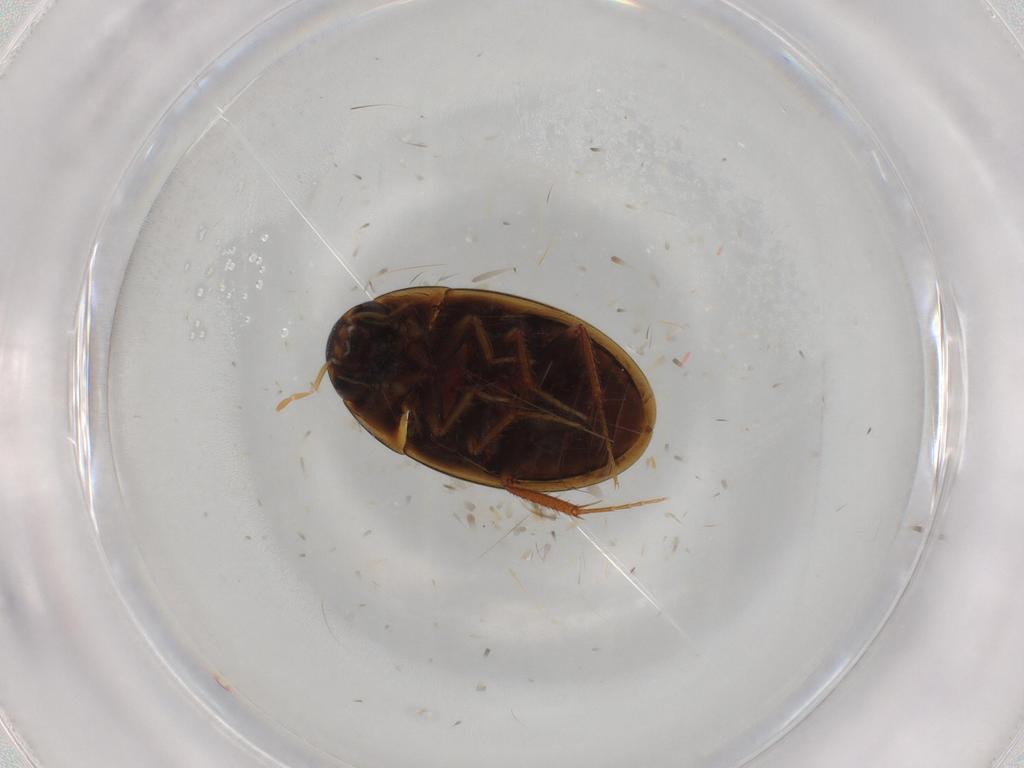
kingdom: Animalia
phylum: Arthropoda
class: Insecta
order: Coleoptera
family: Hydrophilidae
